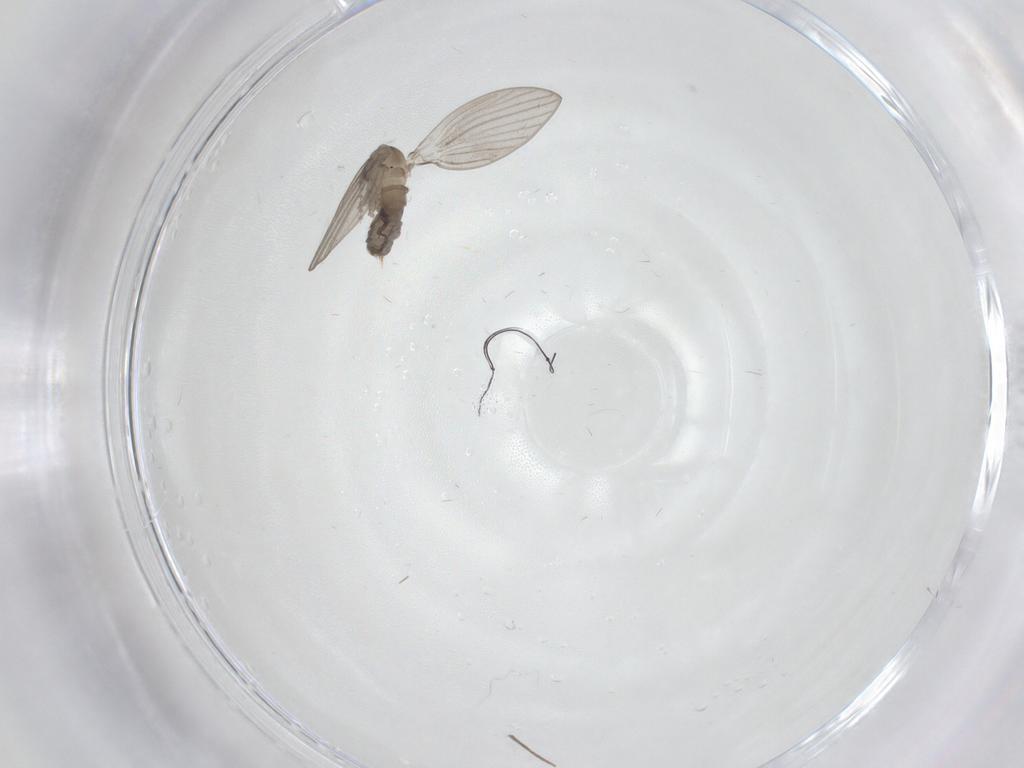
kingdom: Animalia
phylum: Arthropoda
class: Insecta
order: Diptera
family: Psychodidae
